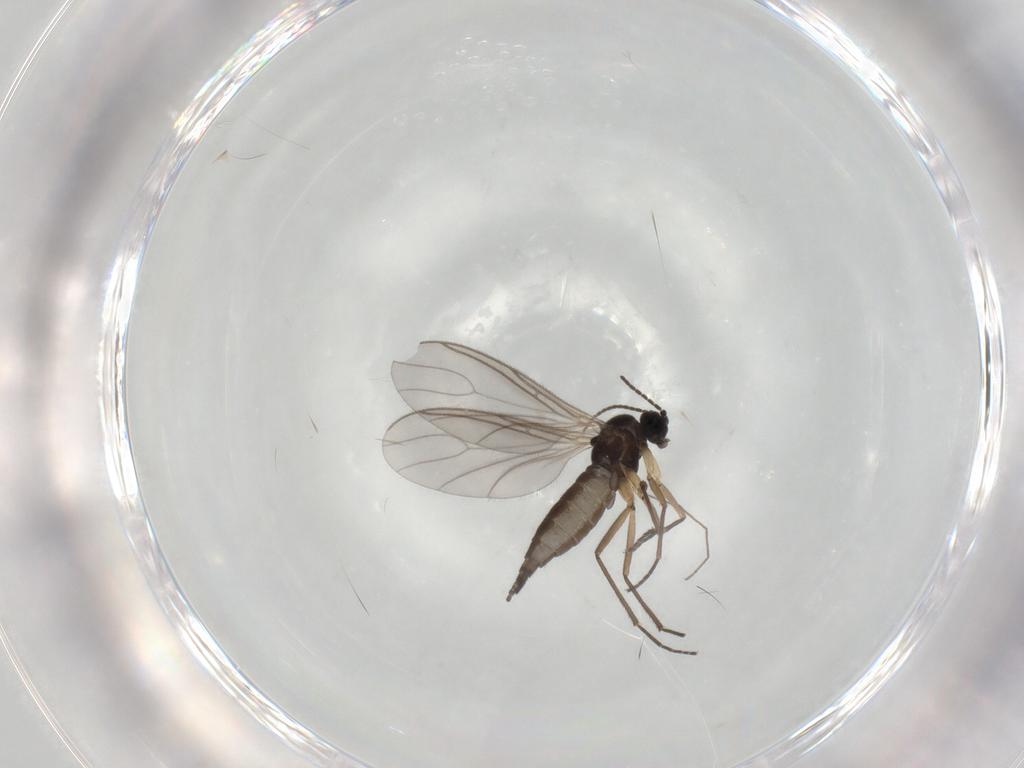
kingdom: Animalia
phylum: Arthropoda
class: Insecta
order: Diptera
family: Sciaridae
